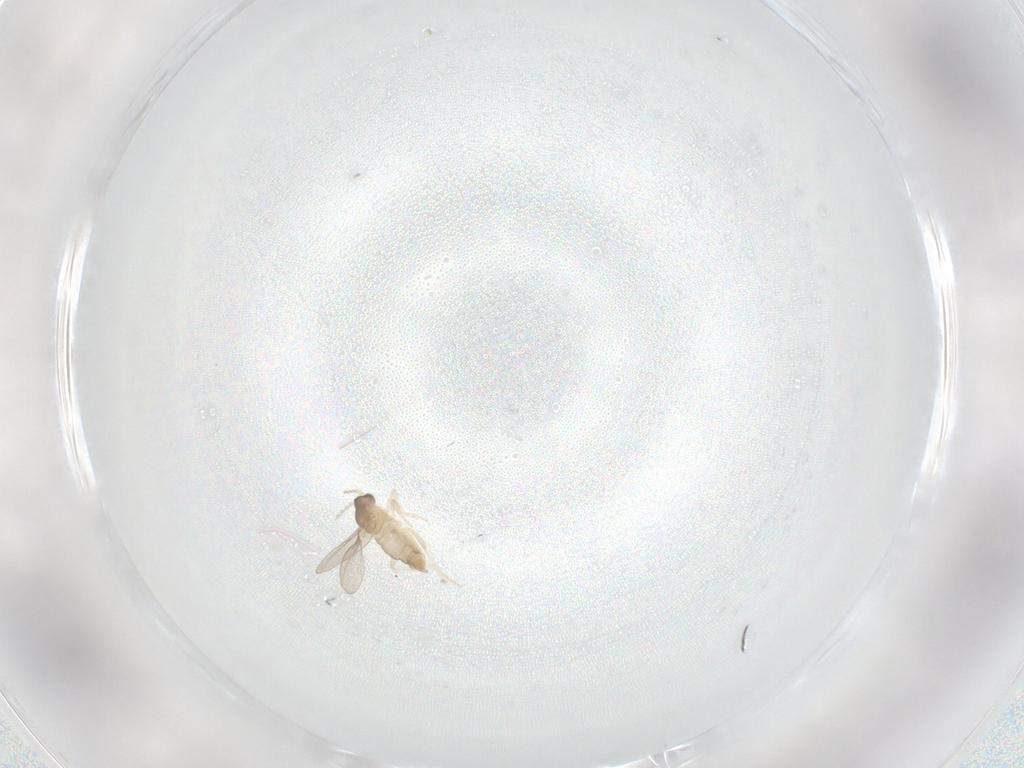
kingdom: Animalia
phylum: Arthropoda
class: Insecta
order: Diptera
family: Cecidomyiidae
